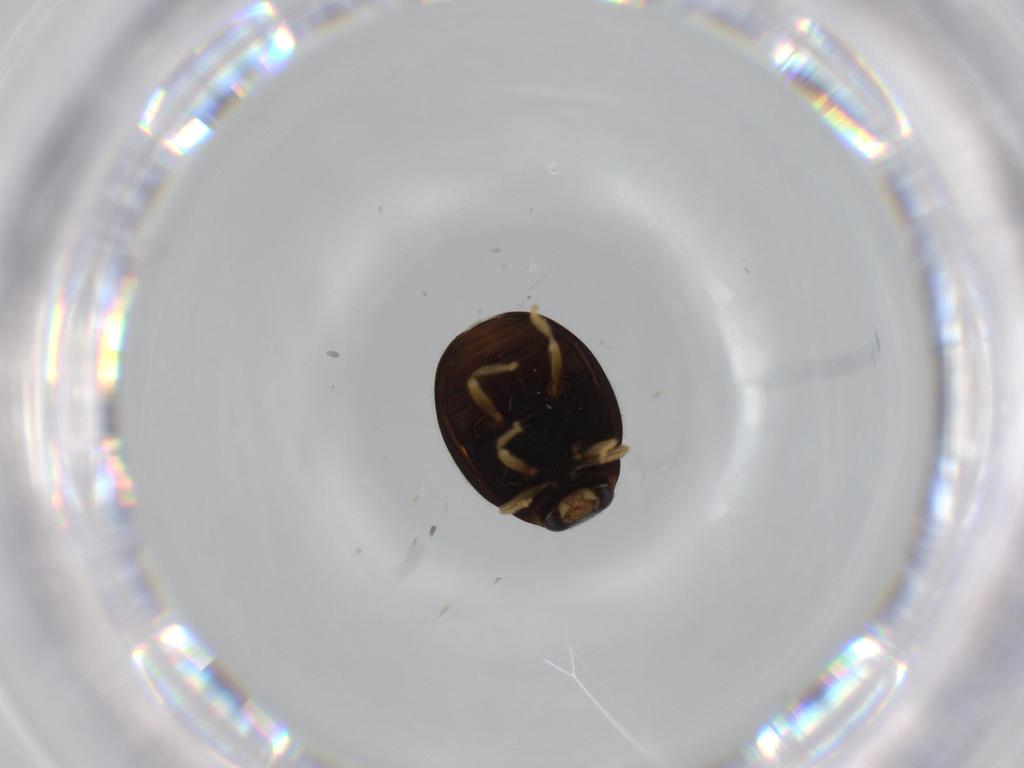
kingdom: Animalia
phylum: Arthropoda
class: Insecta
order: Coleoptera
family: Coccinellidae
